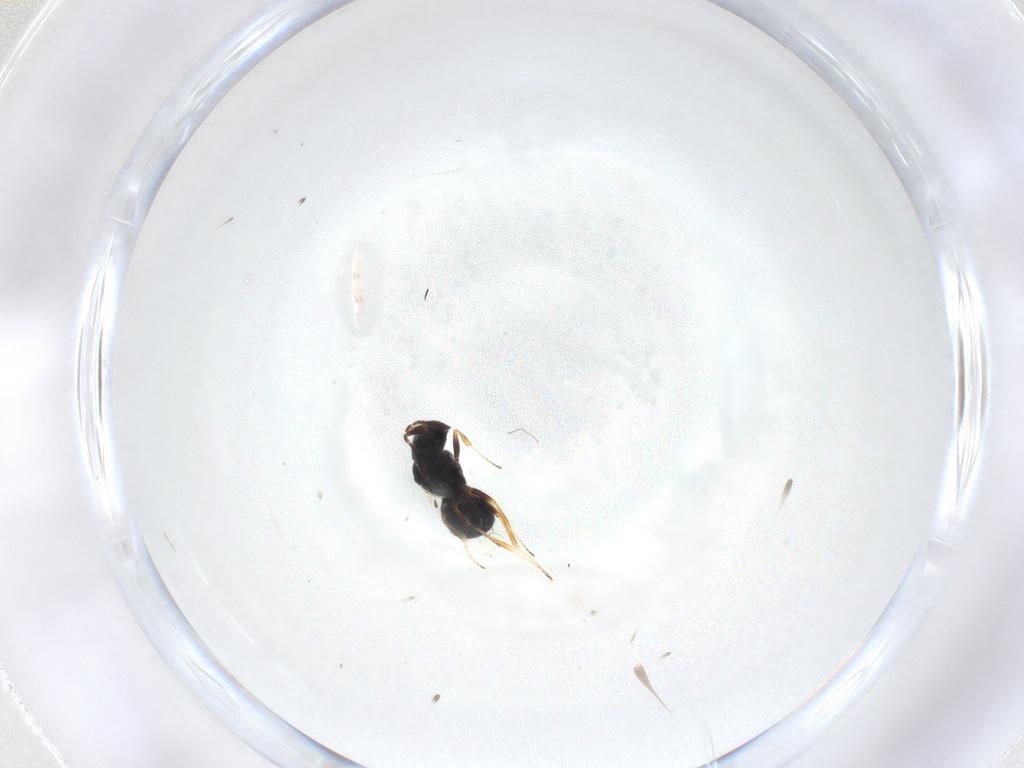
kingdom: Animalia
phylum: Arthropoda
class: Insecta
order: Hymenoptera
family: Scelionidae
